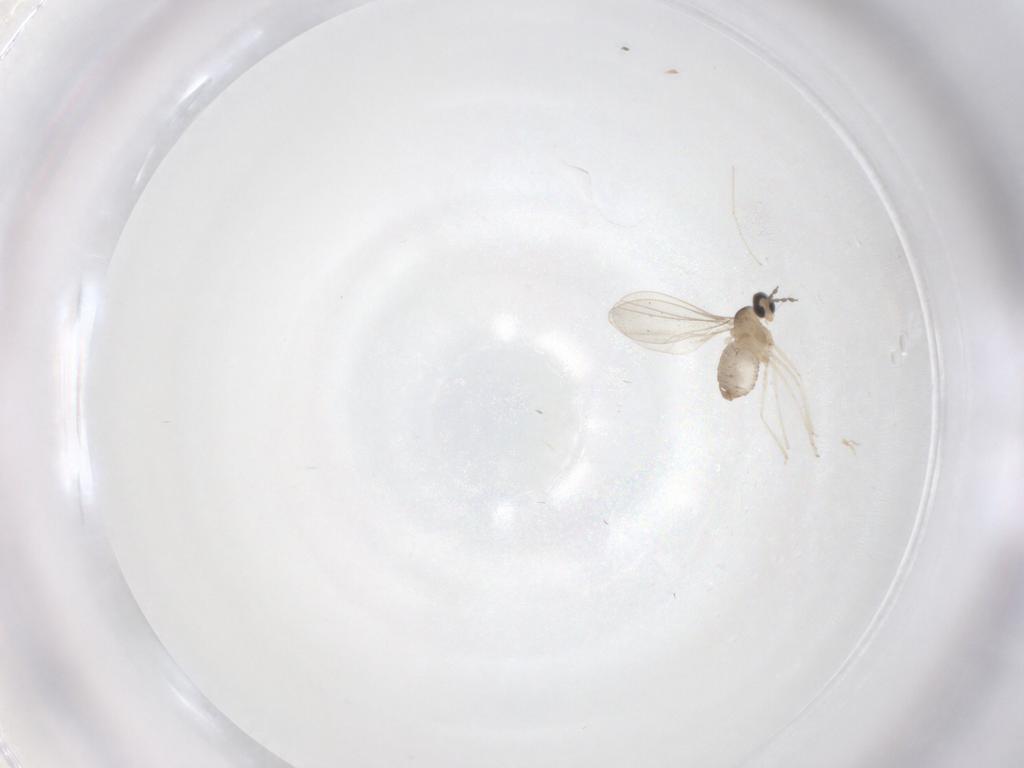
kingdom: Animalia
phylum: Arthropoda
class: Insecta
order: Diptera
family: Cecidomyiidae
